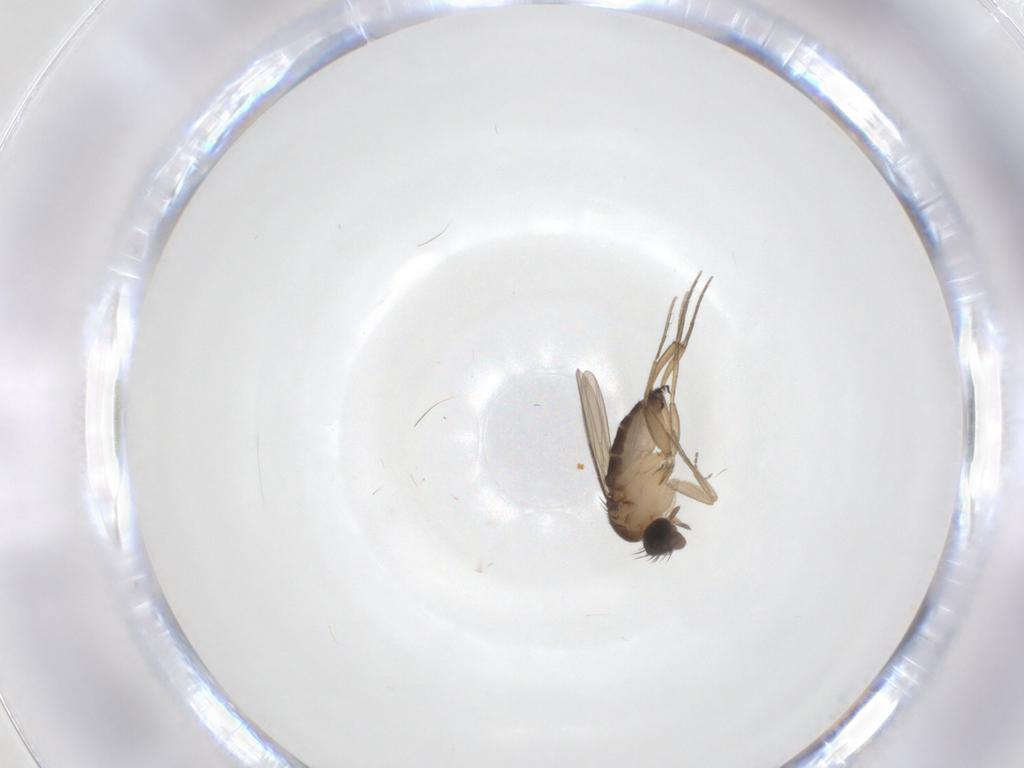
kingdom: Animalia
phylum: Arthropoda
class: Insecta
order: Diptera
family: Phoridae
